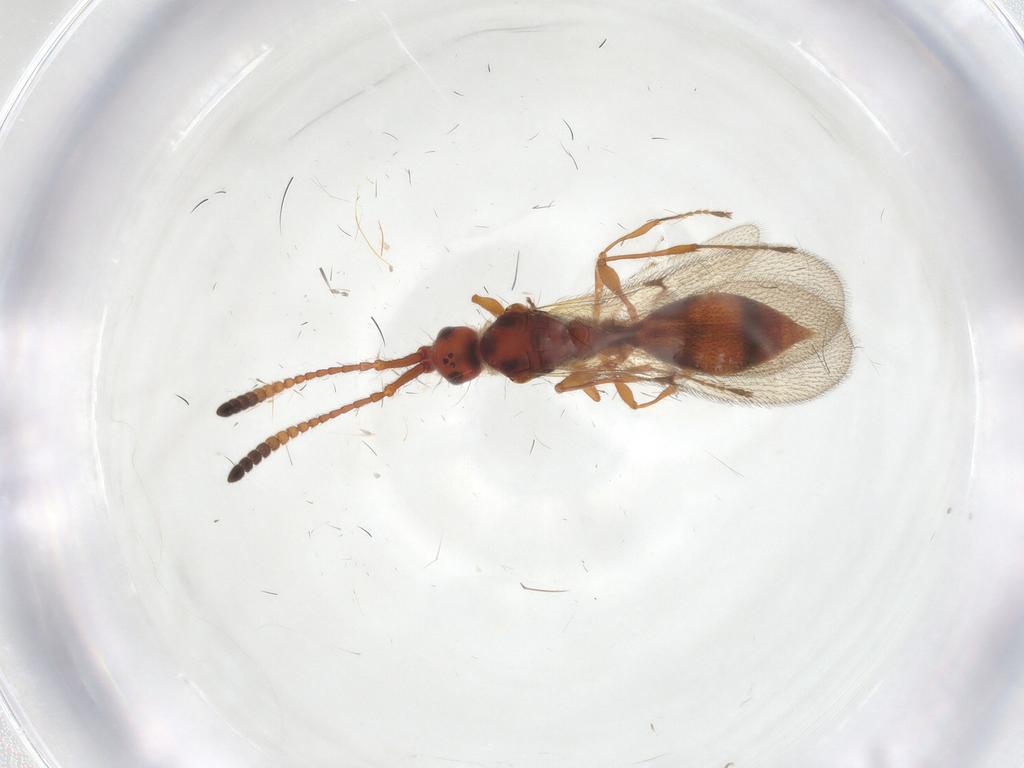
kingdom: Animalia
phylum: Arthropoda
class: Insecta
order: Hymenoptera
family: Diapriidae
